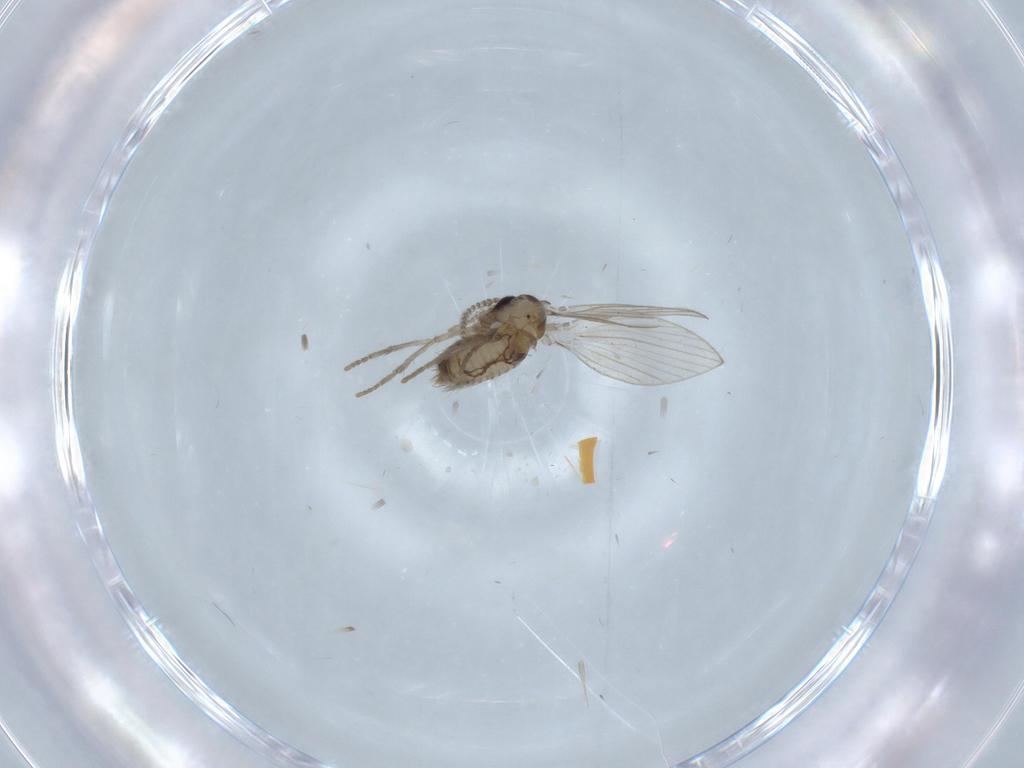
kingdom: Animalia
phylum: Arthropoda
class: Insecta
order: Diptera
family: Psychodidae
